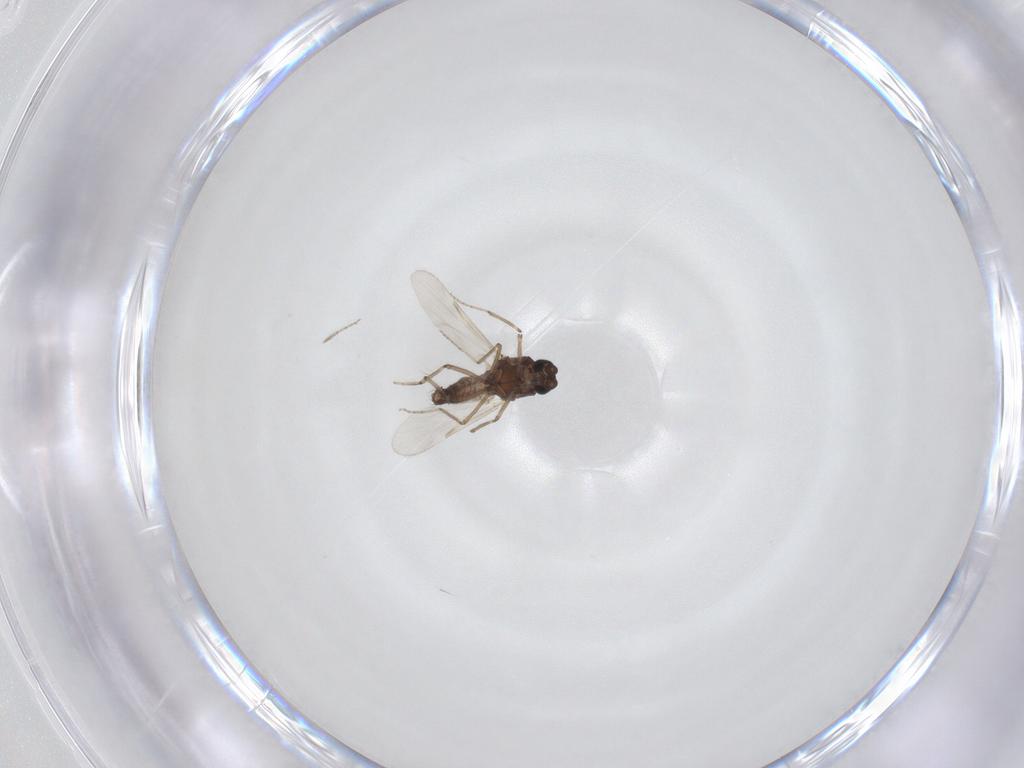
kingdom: Animalia
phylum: Arthropoda
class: Insecta
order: Diptera
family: Ceratopogonidae
